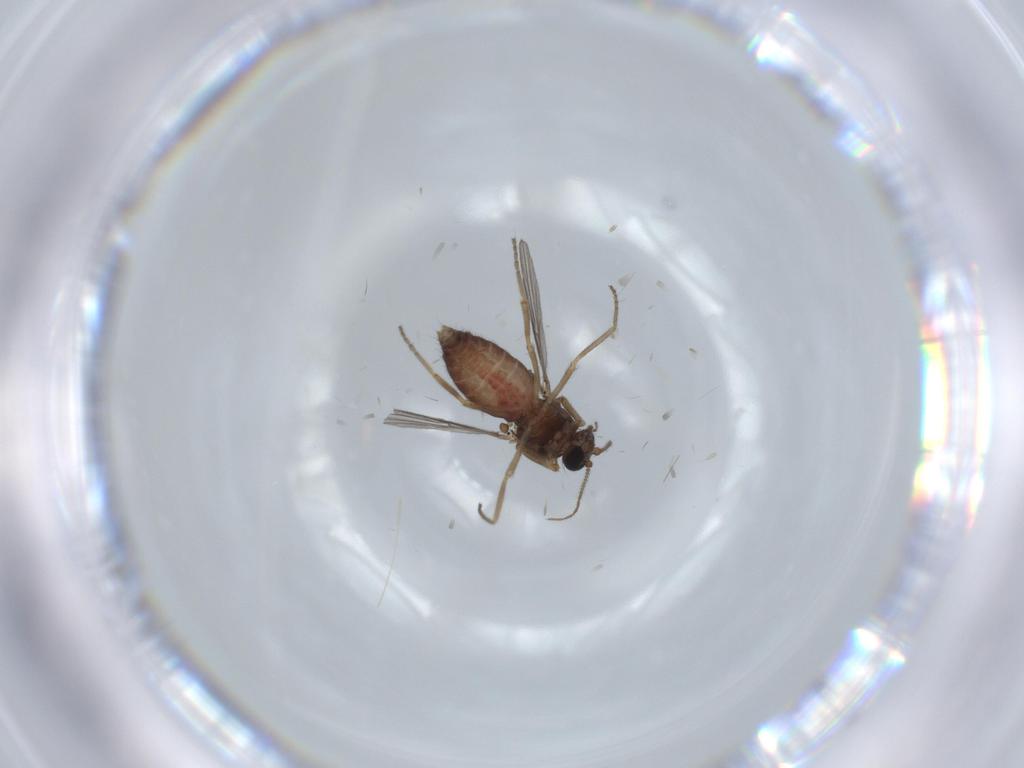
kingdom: Animalia
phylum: Arthropoda
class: Insecta
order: Diptera
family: Ceratopogonidae
